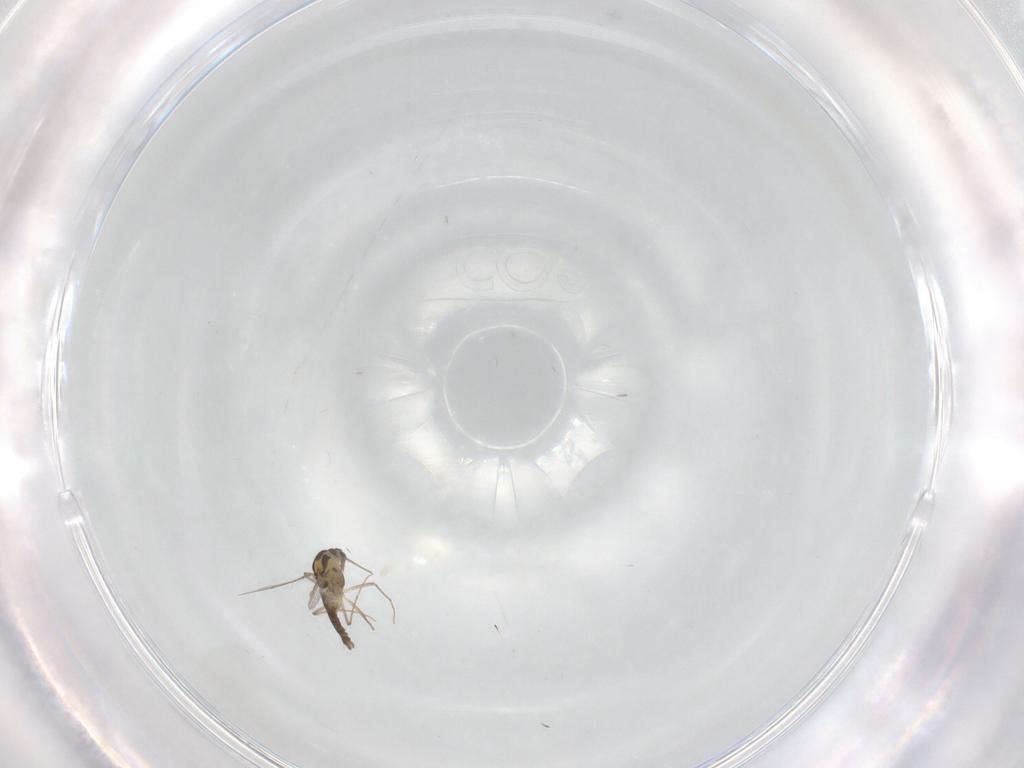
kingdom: Animalia
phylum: Arthropoda
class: Insecta
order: Diptera
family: Chironomidae
